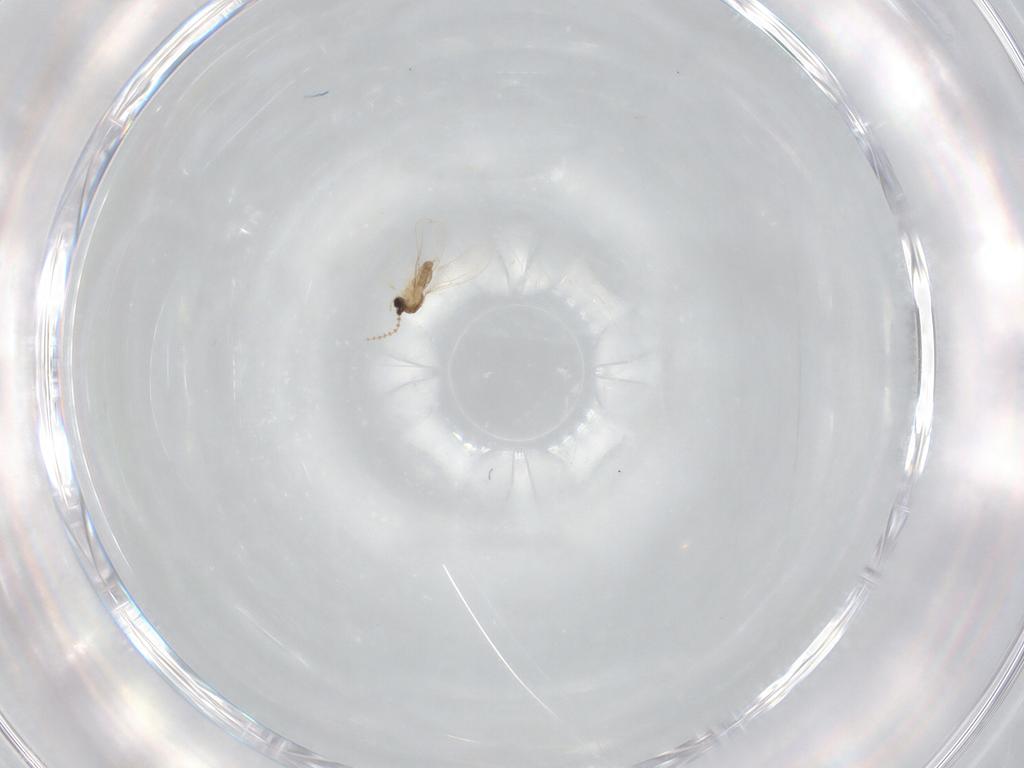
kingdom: Animalia
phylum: Arthropoda
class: Insecta
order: Diptera
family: Cecidomyiidae
